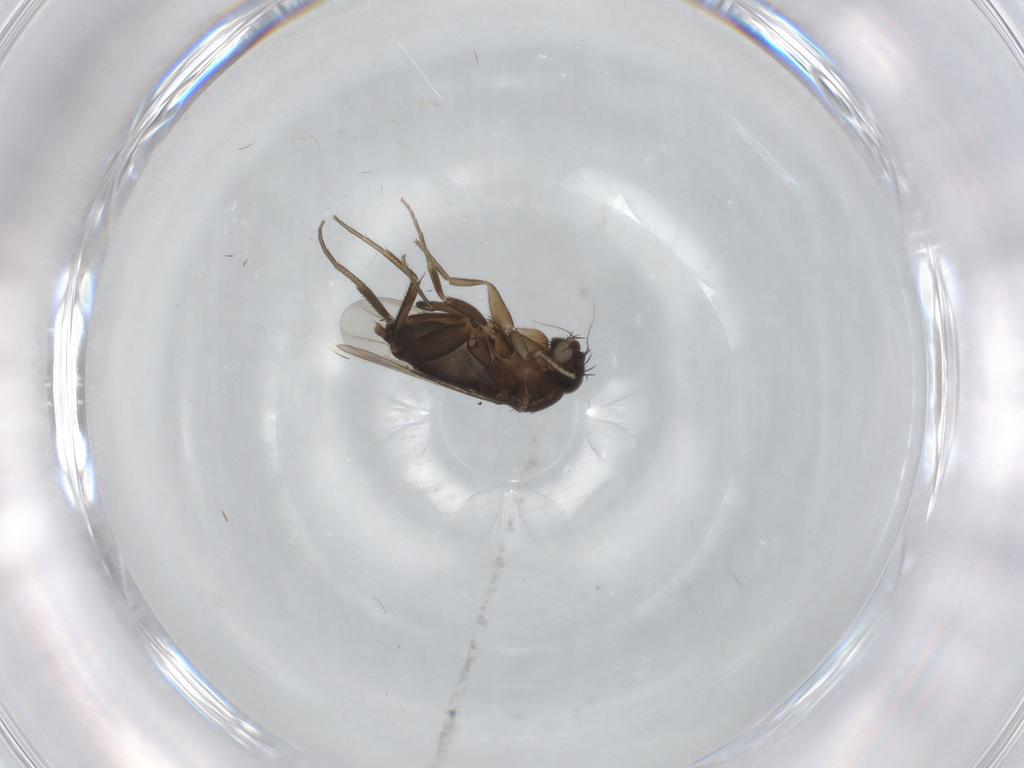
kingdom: Animalia
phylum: Arthropoda
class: Insecta
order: Diptera
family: Phoridae
